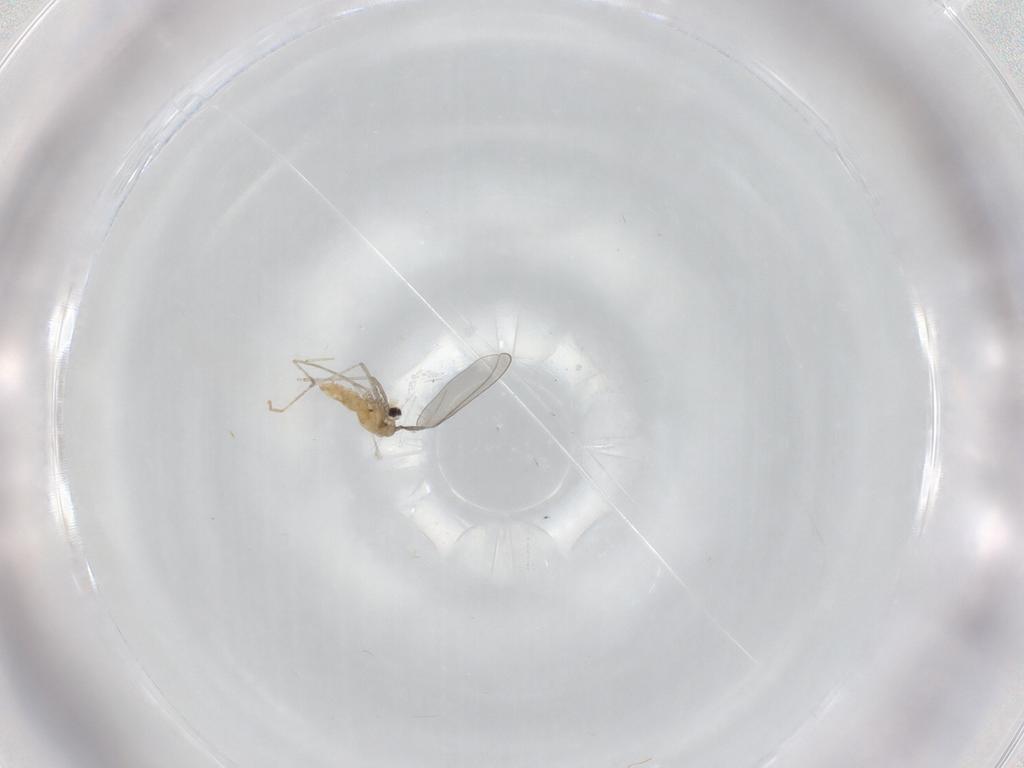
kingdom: Animalia
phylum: Arthropoda
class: Insecta
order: Diptera
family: Cecidomyiidae
